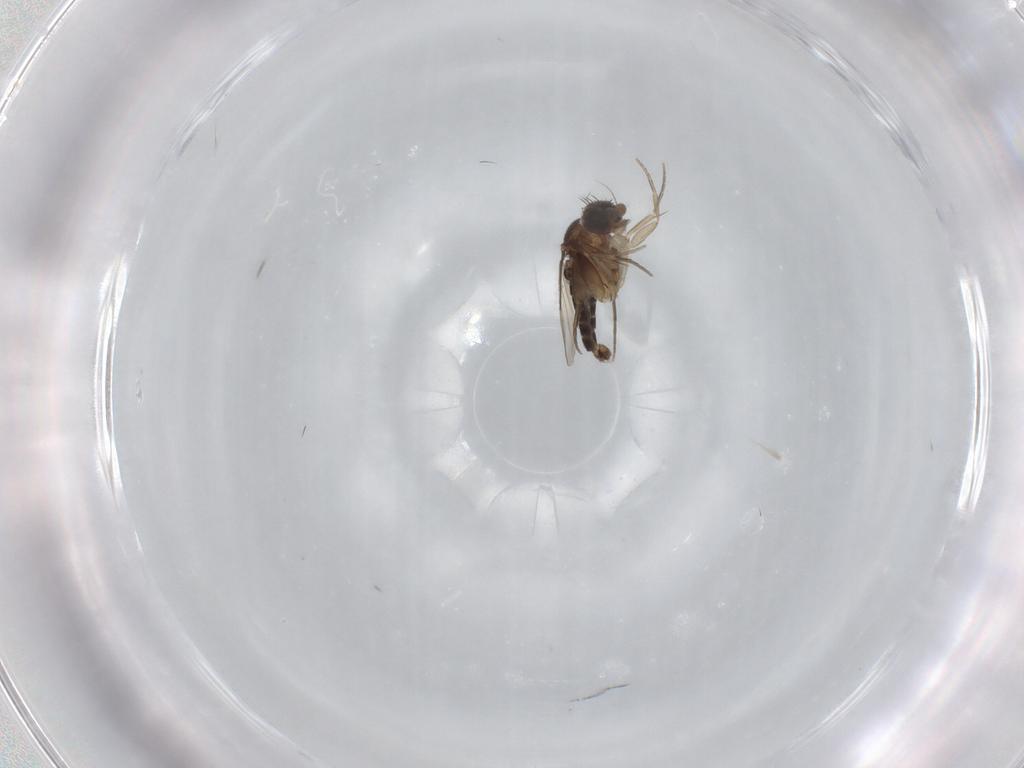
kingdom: Animalia
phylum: Arthropoda
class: Insecta
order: Diptera
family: Phoridae
